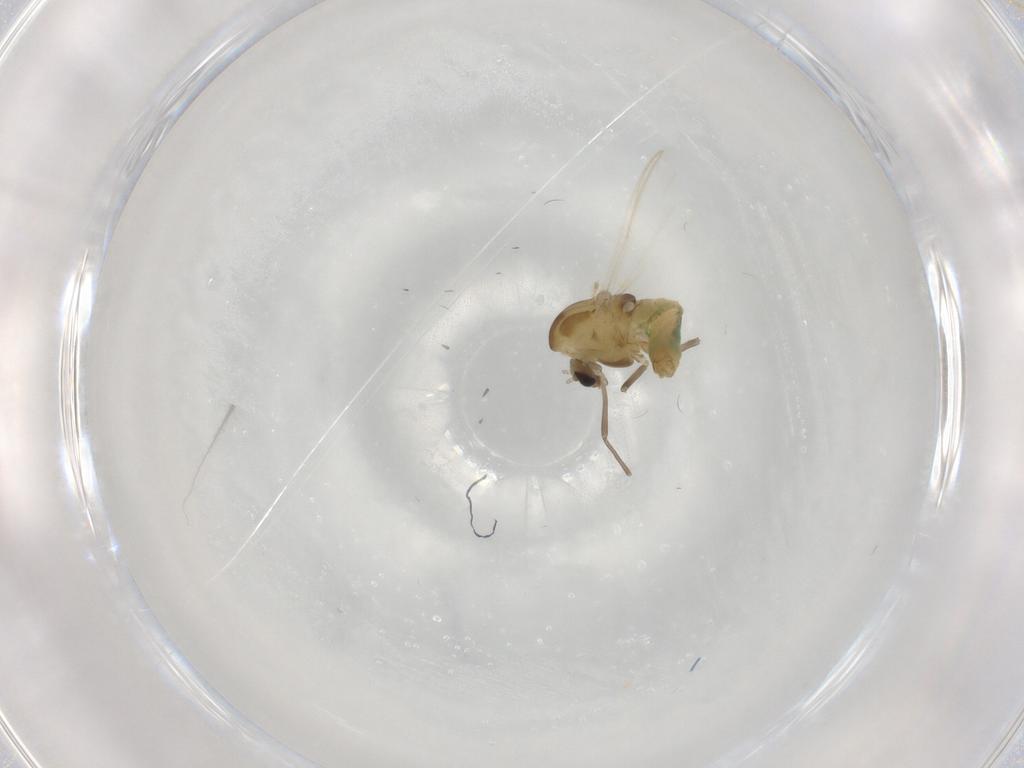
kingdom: Animalia
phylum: Arthropoda
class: Insecta
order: Diptera
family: Chironomidae
